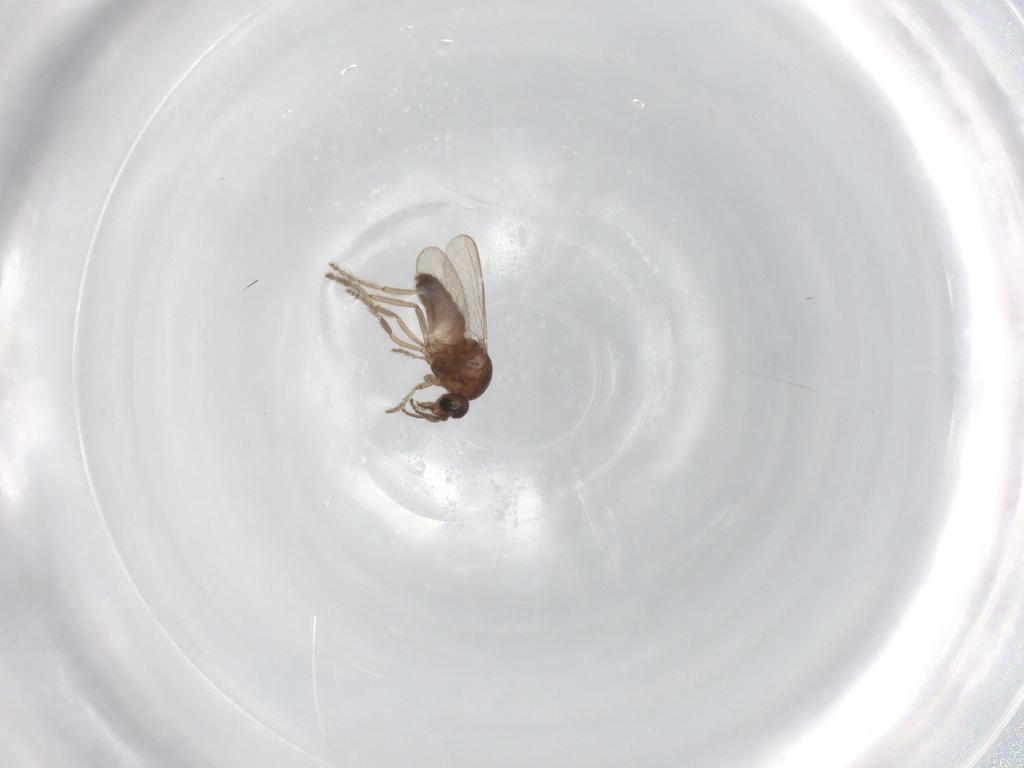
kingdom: Animalia
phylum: Arthropoda
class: Insecta
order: Diptera
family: Ceratopogonidae
